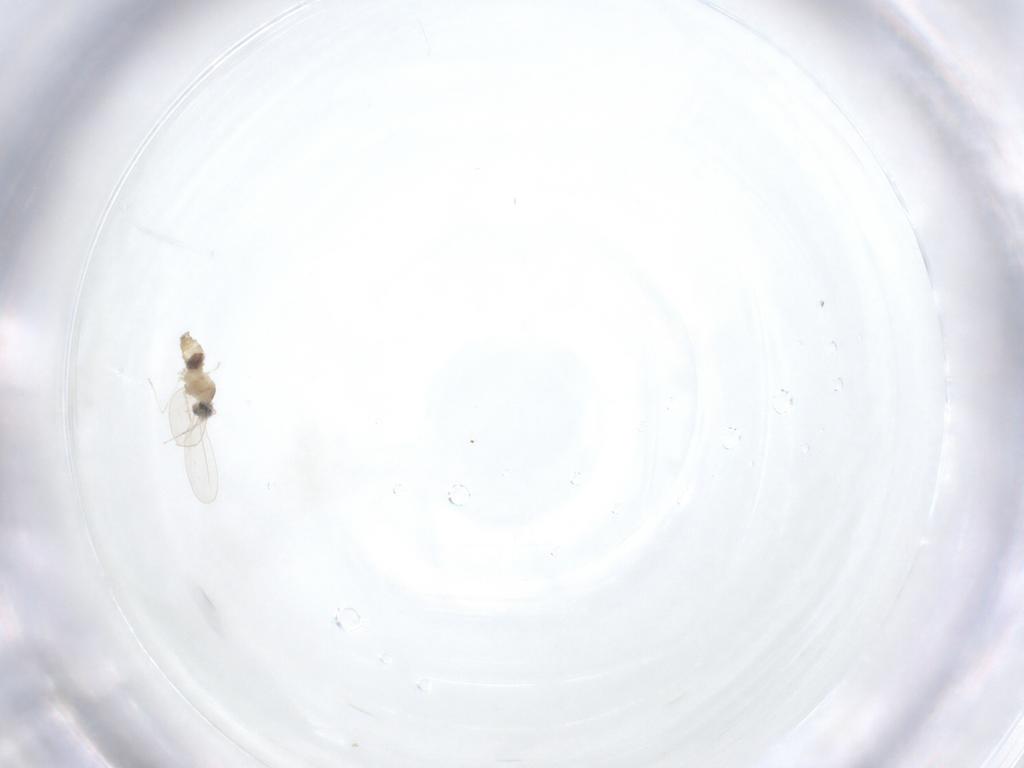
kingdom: Animalia
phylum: Arthropoda
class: Insecta
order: Diptera
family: Cecidomyiidae
